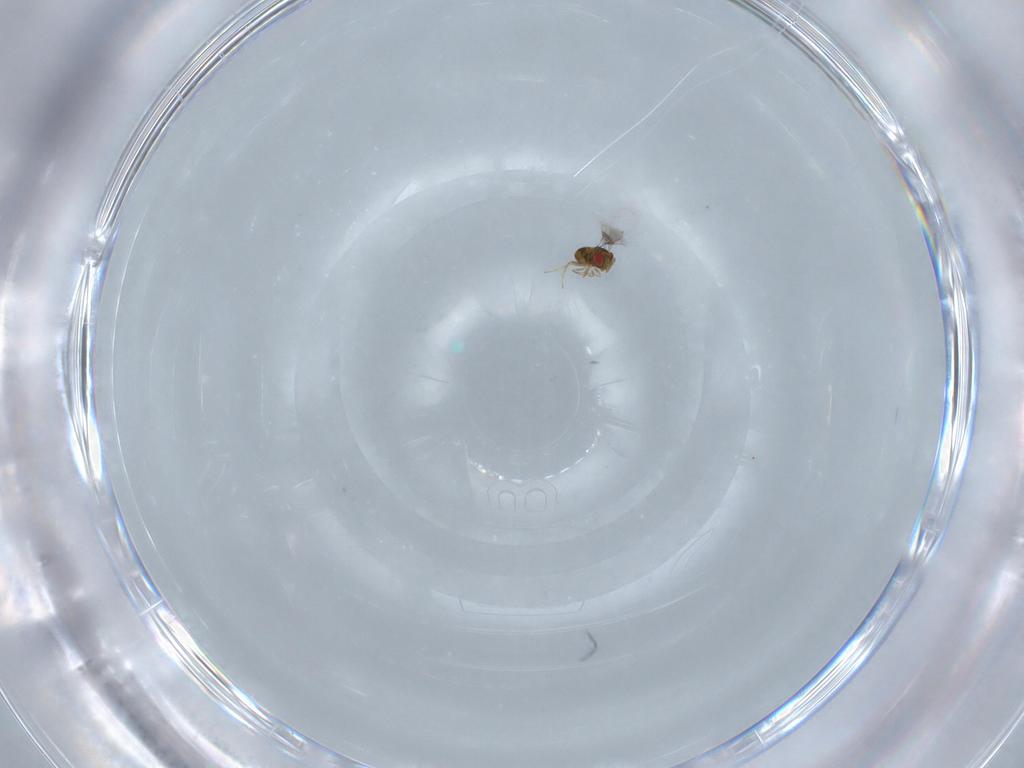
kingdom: Animalia
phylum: Arthropoda
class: Insecta
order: Hymenoptera
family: Trichogrammatidae
